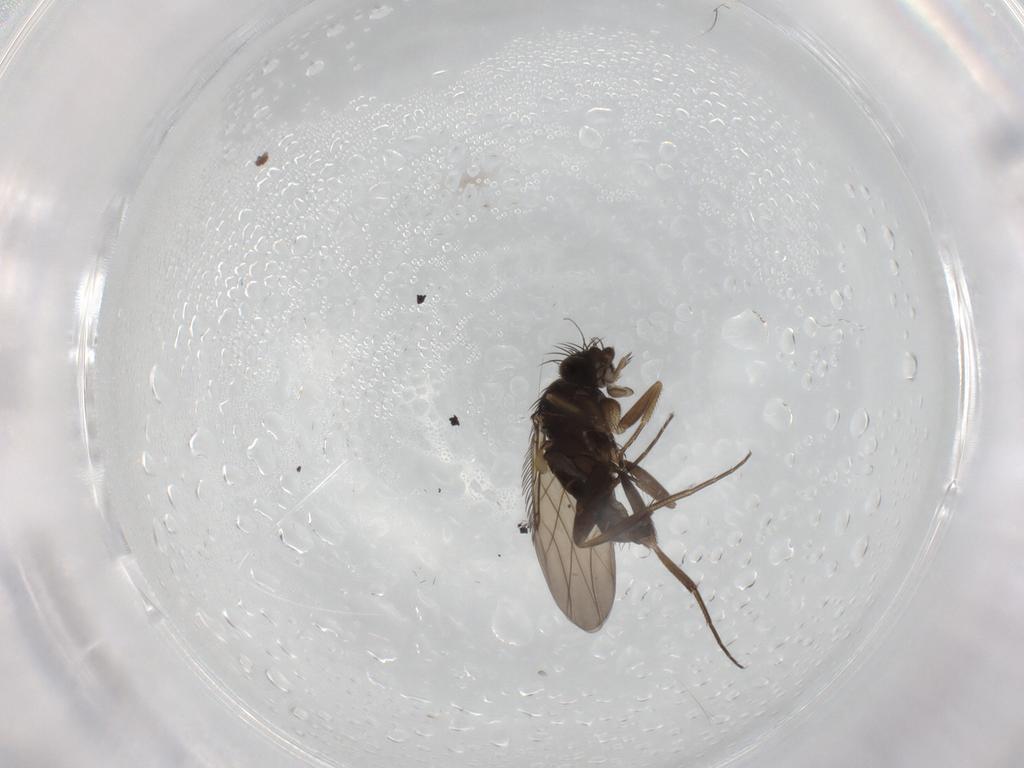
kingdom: Animalia
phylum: Arthropoda
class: Insecta
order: Diptera
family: Phoridae
